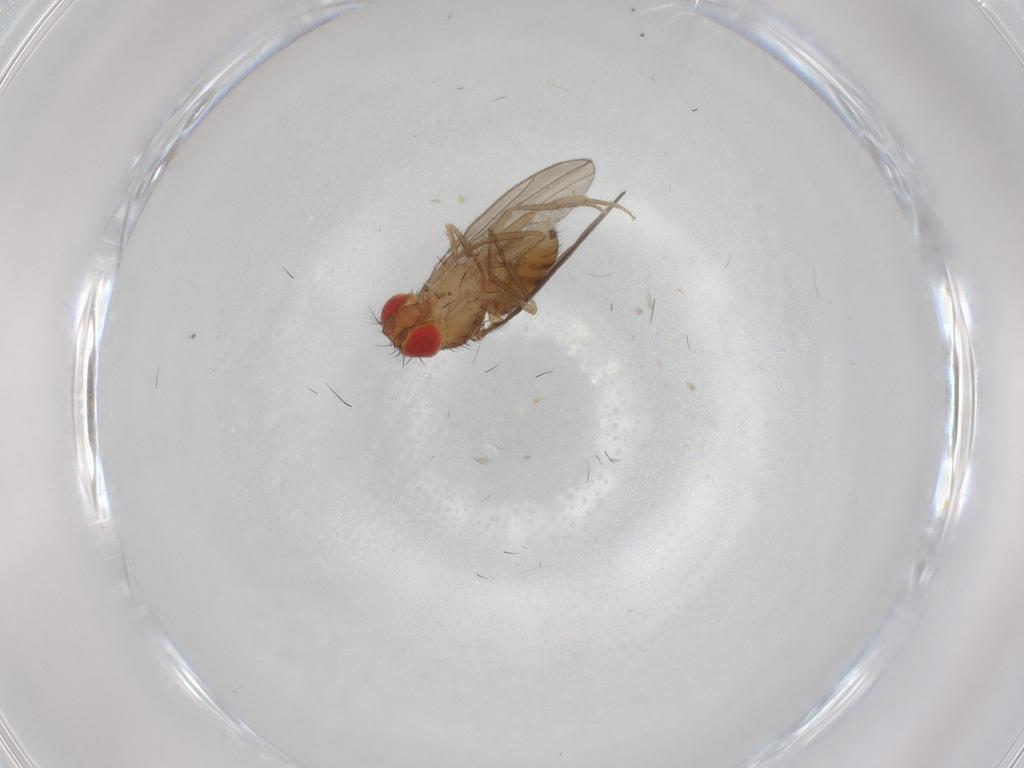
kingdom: Animalia
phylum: Arthropoda
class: Insecta
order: Diptera
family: Drosophilidae
